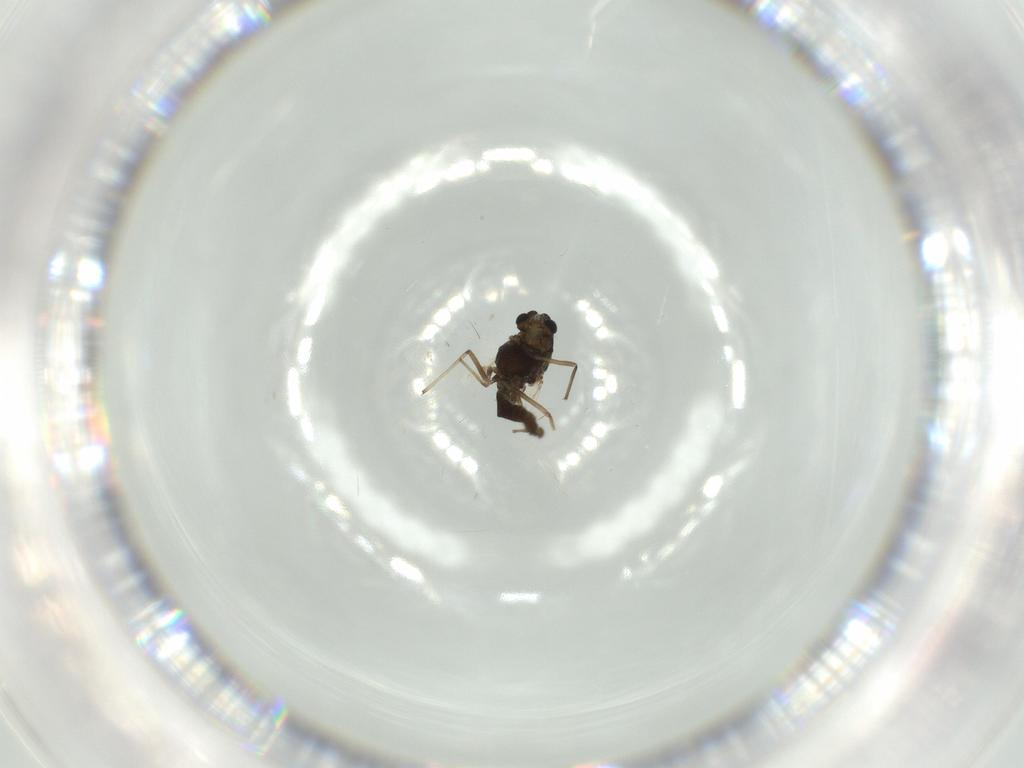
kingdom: Animalia
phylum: Arthropoda
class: Insecta
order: Diptera
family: Chironomidae
